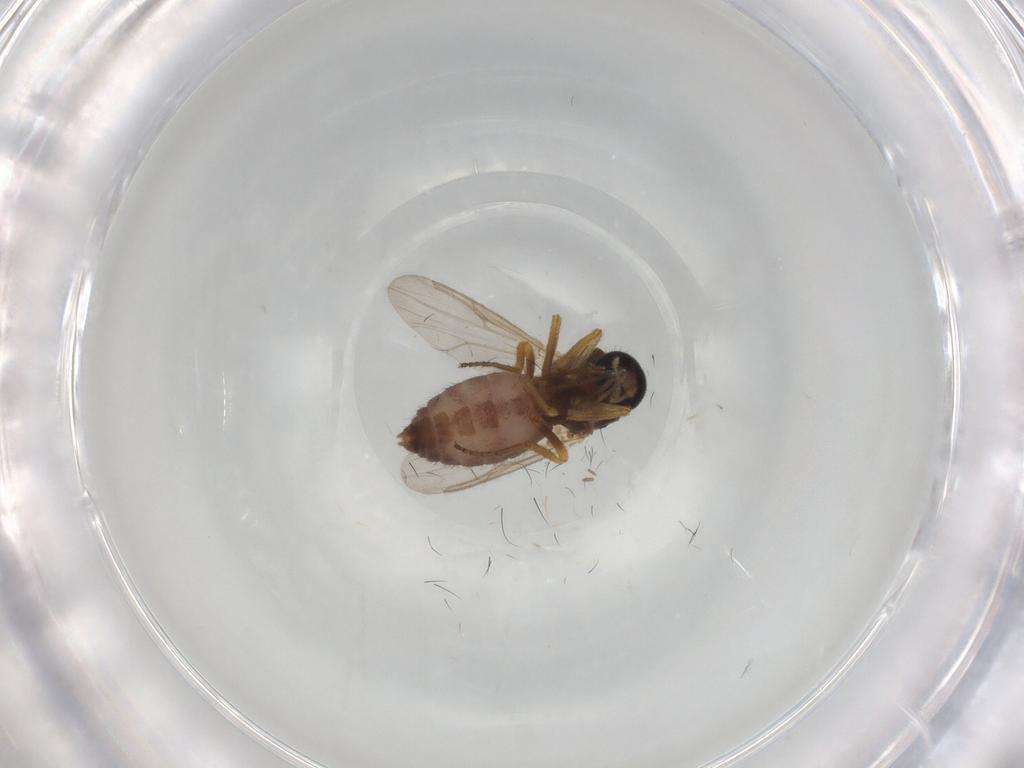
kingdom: Animalia
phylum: Arthropoda
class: Insecta
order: Diptera
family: Ceratopogonidae
